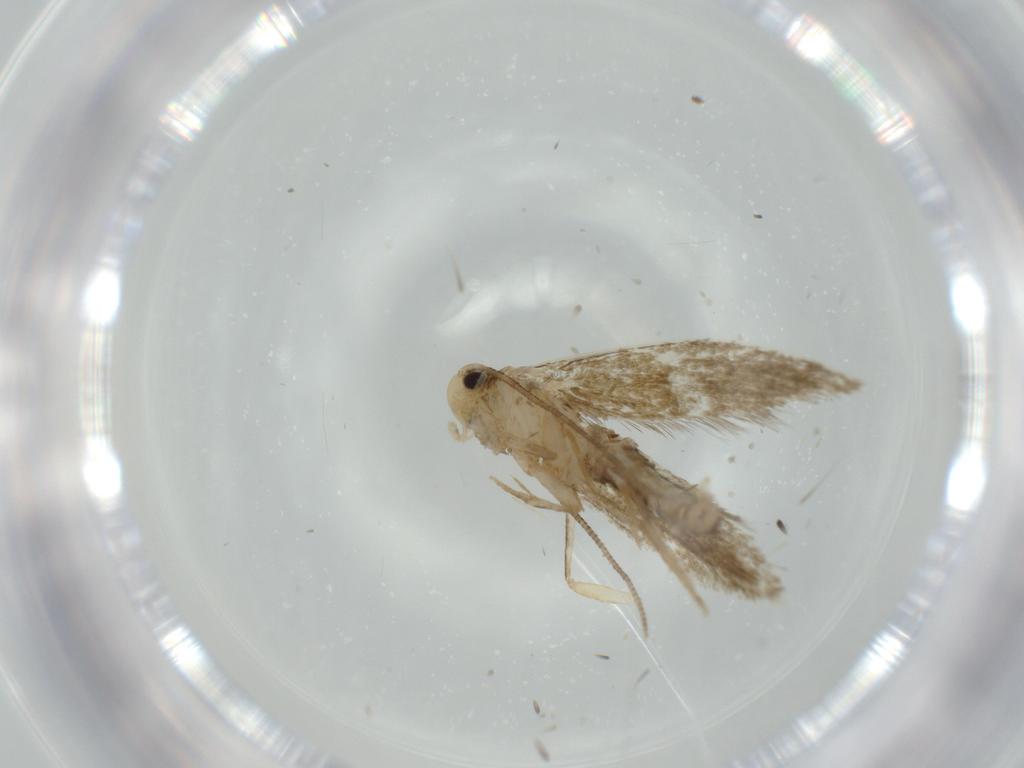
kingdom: Animalia
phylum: Arthropoda
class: Insecta
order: Lepidoptera
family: Tineidae
